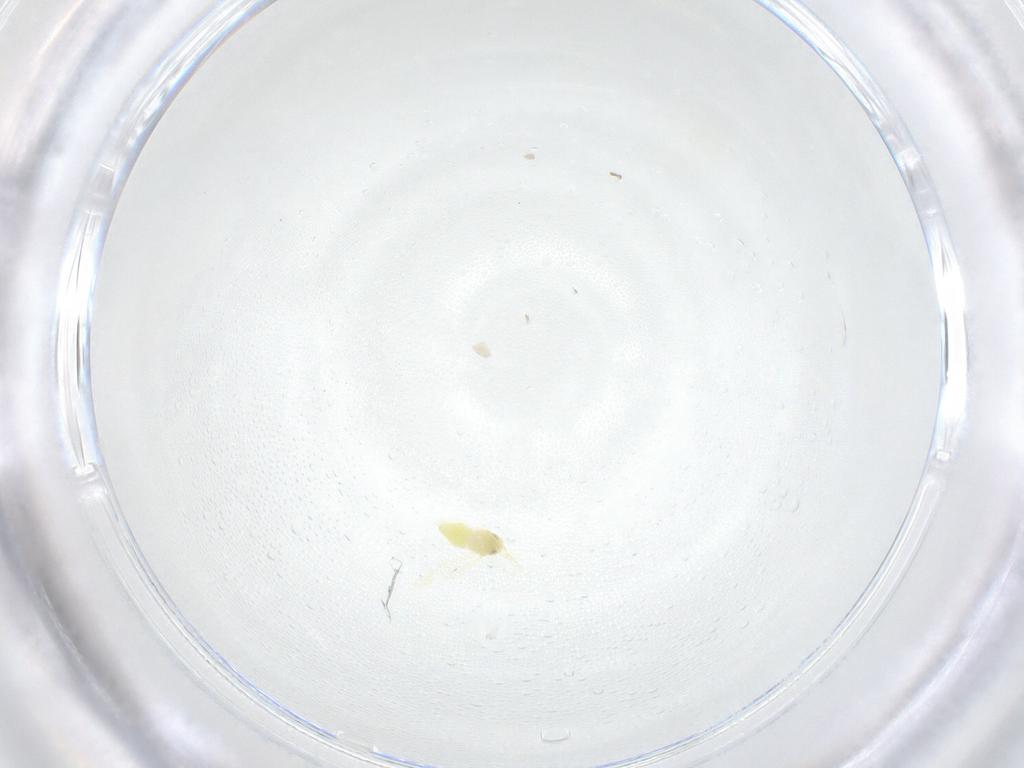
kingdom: Animalia
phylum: Arthropoda
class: Insecta
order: Hemiptera
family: Aleyrodidae
